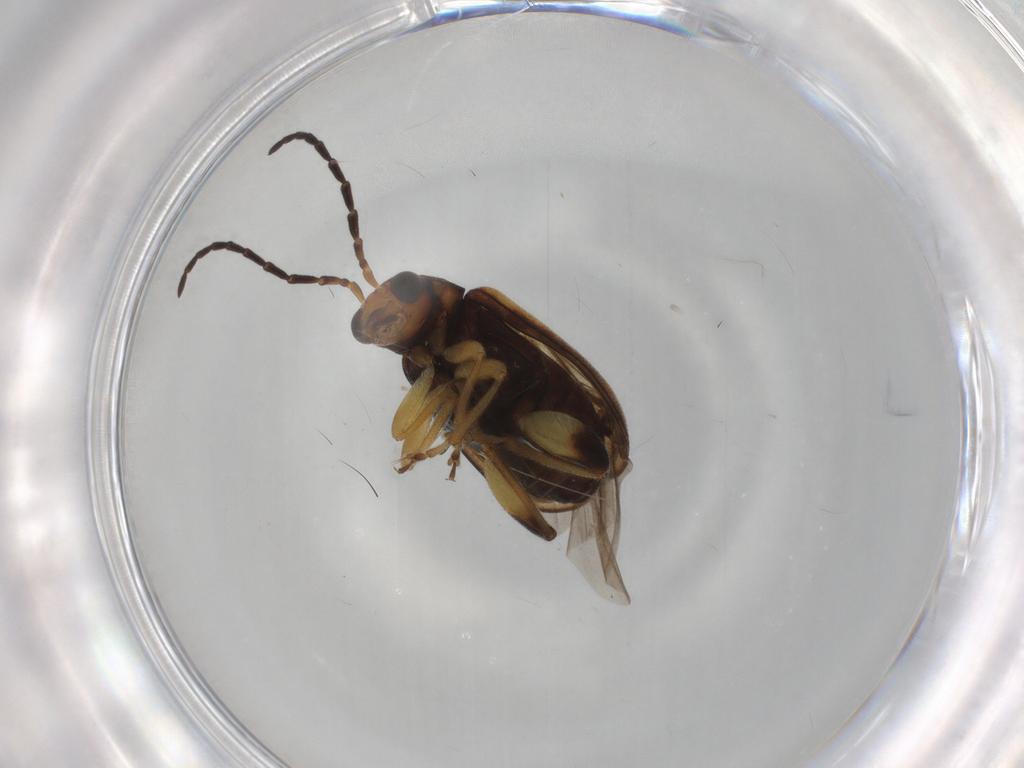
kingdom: Animalia
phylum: Arthropoda
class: Insecta
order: Coleoptera
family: Chrysomelidae
